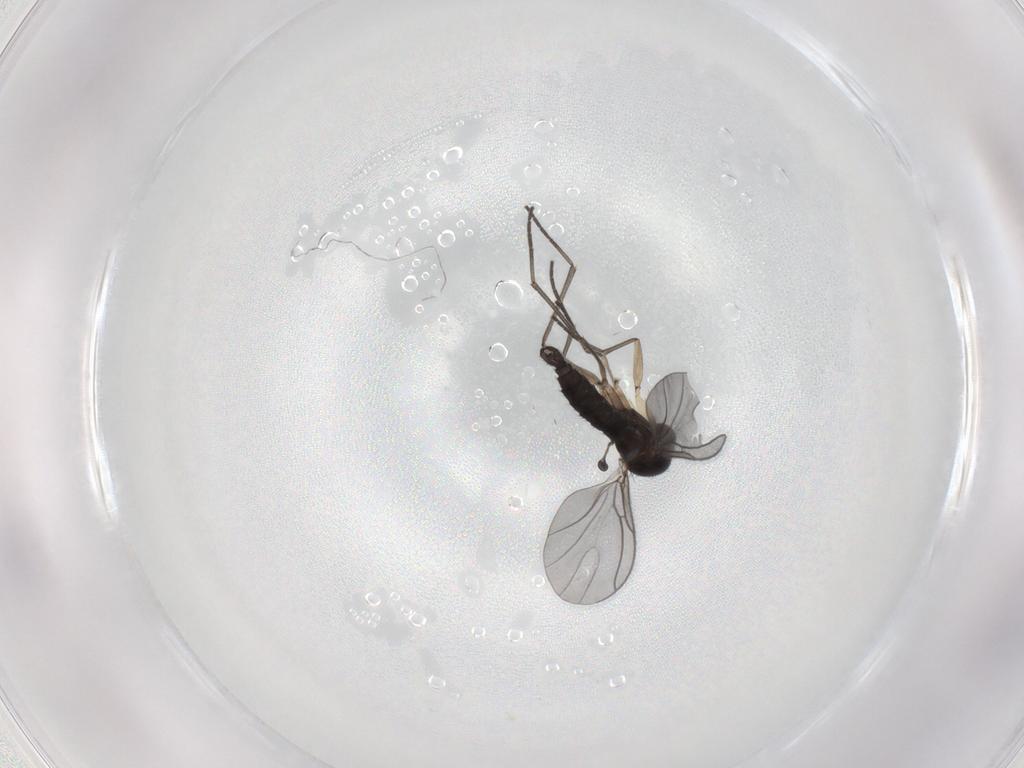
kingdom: Animalia
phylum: Arthropoda
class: Insecta
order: Diptera
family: Sciaridae
